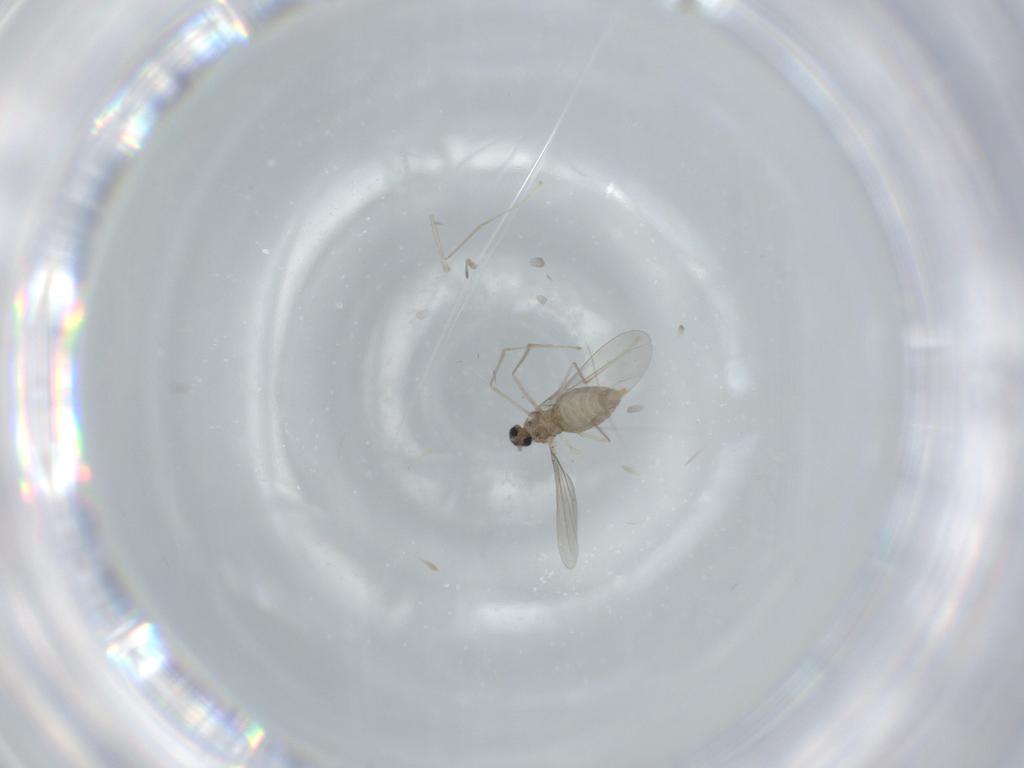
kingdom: Animalia
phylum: Arthropoda
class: Insecta
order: Diptera
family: Cecidomyiidae
